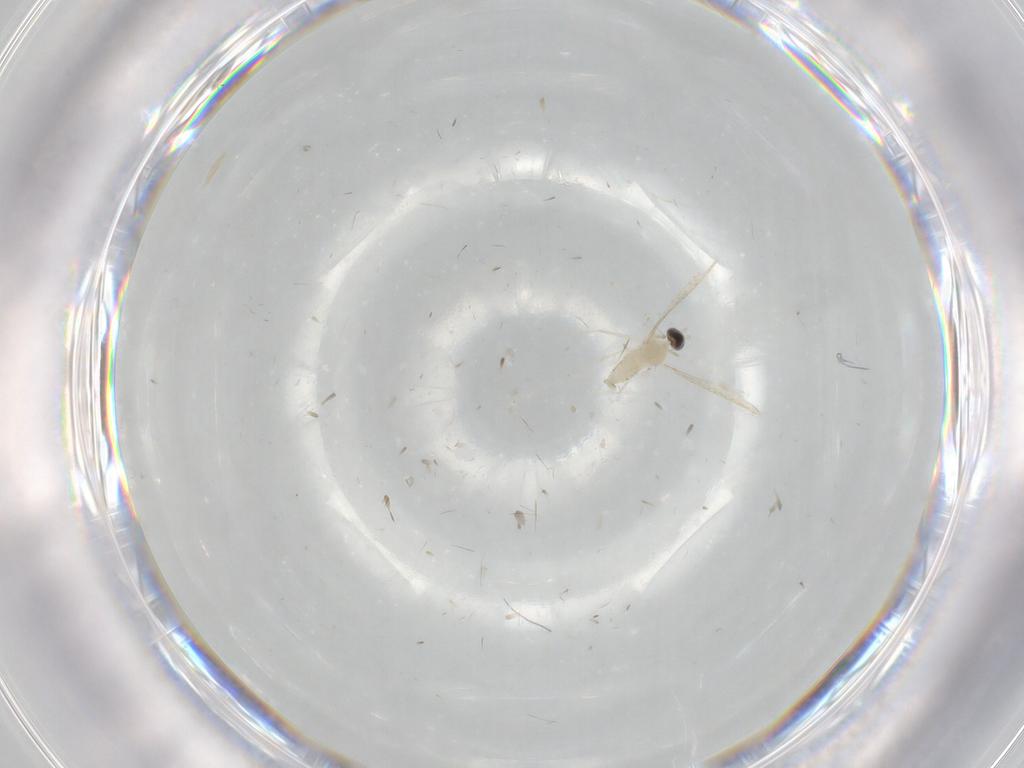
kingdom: Animalia
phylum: Arthropoda
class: Insecta
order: Diptera
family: Cecidomyiidae
